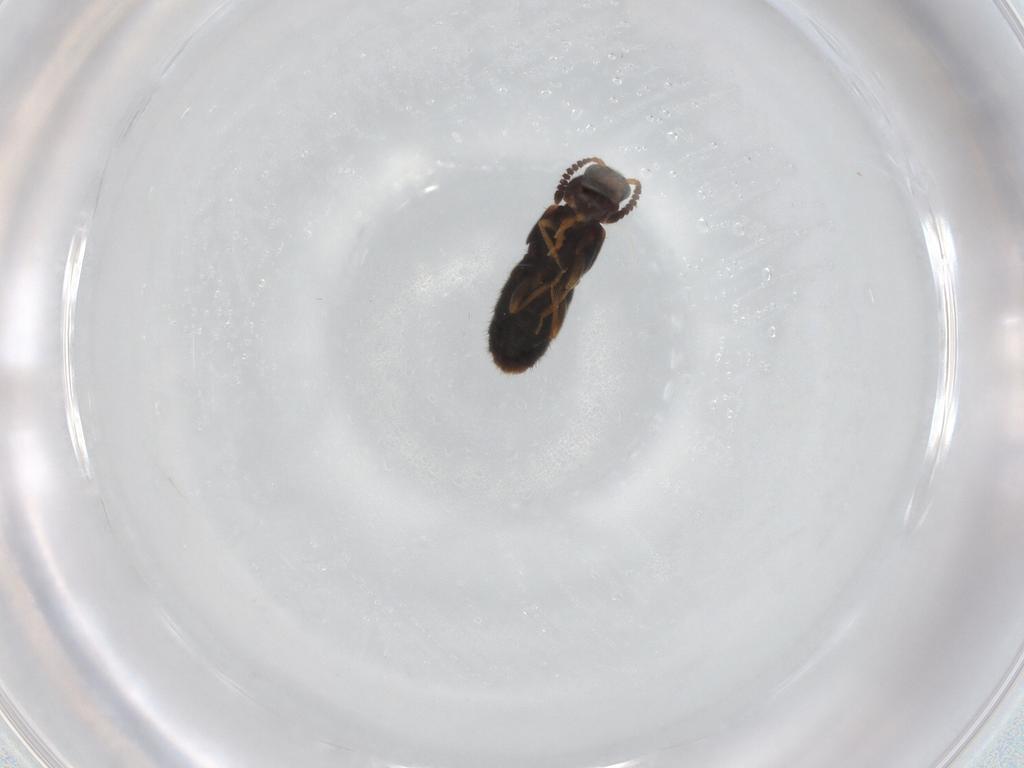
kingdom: Animalia
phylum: Arthropoda
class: Insecta
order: Coleoptera
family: Staphylinidae
